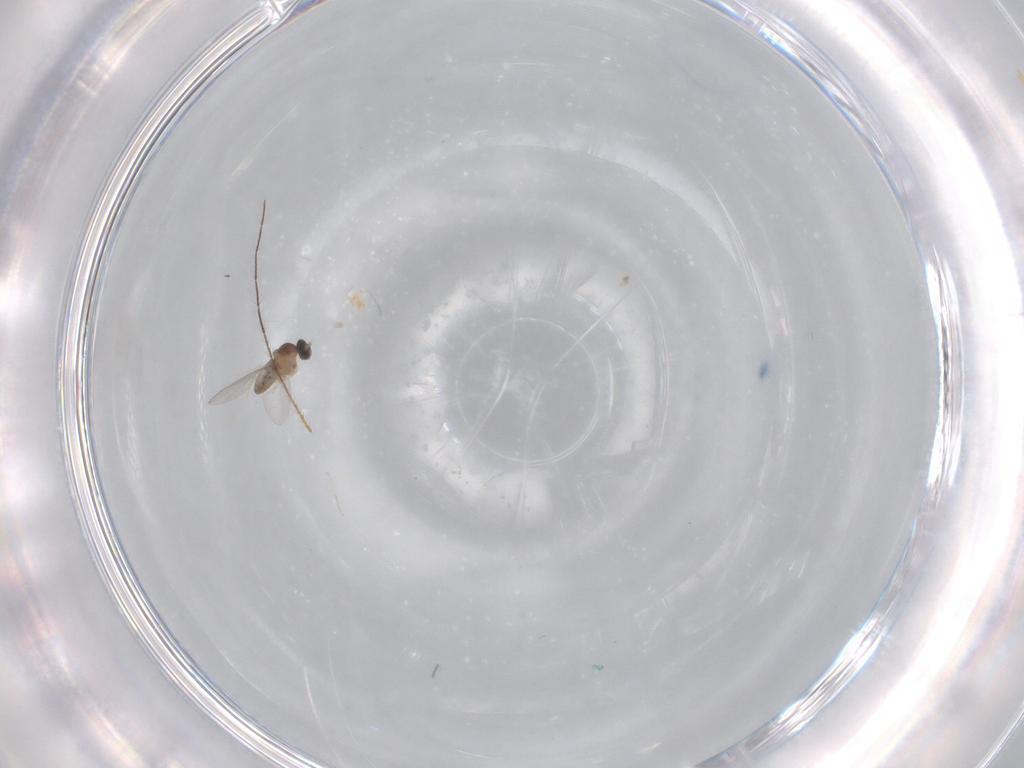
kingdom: Animalia
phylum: Arthropoda
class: Insecta
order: Diptera
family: Cecidomyiidae
